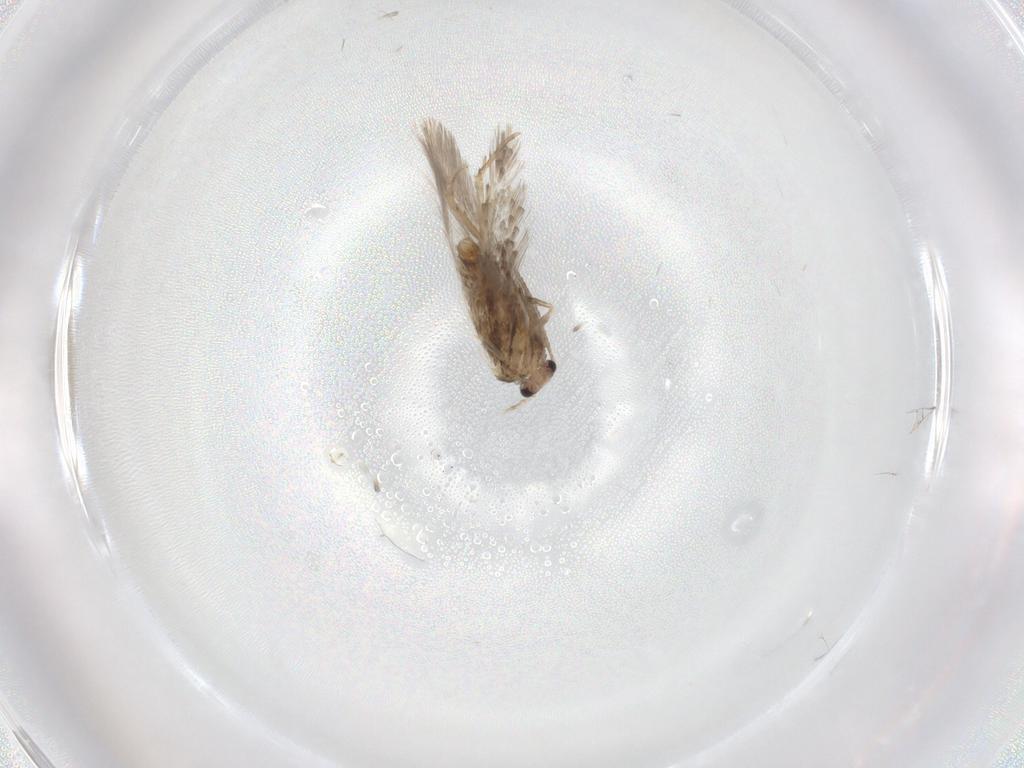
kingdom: Animalia
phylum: Arthropoda
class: Insecta
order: Lepidoptera
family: Nepticulidae
